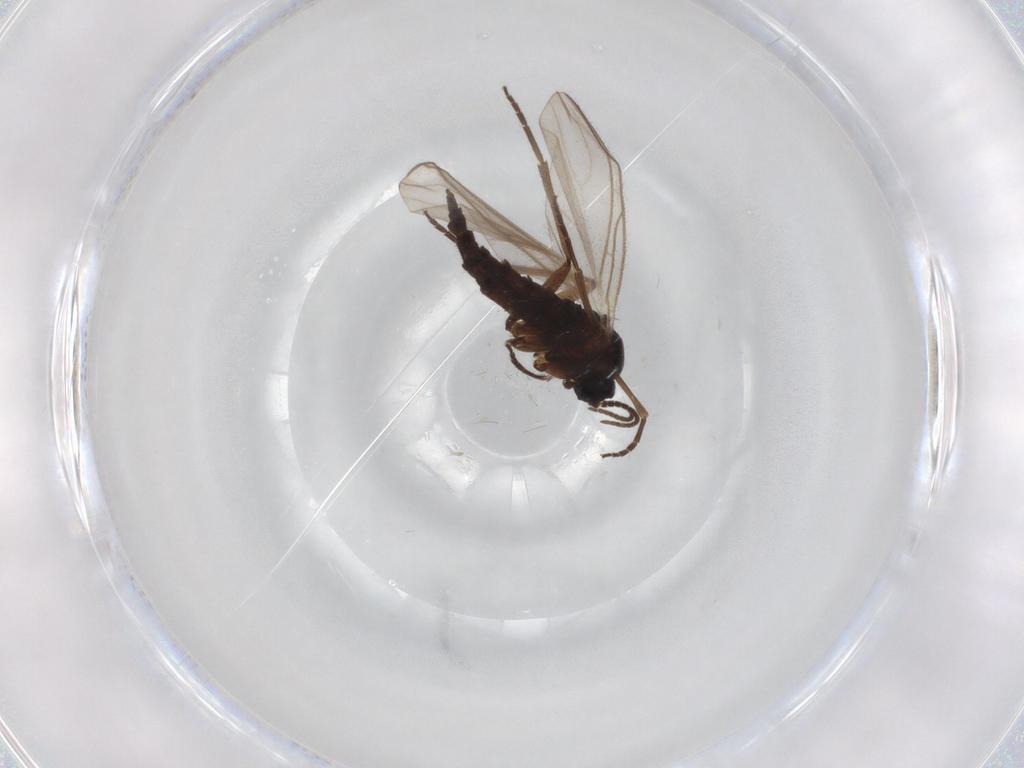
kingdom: Animalia
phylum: Arthropoda
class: Insecta
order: Diptera
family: Sciaridae
